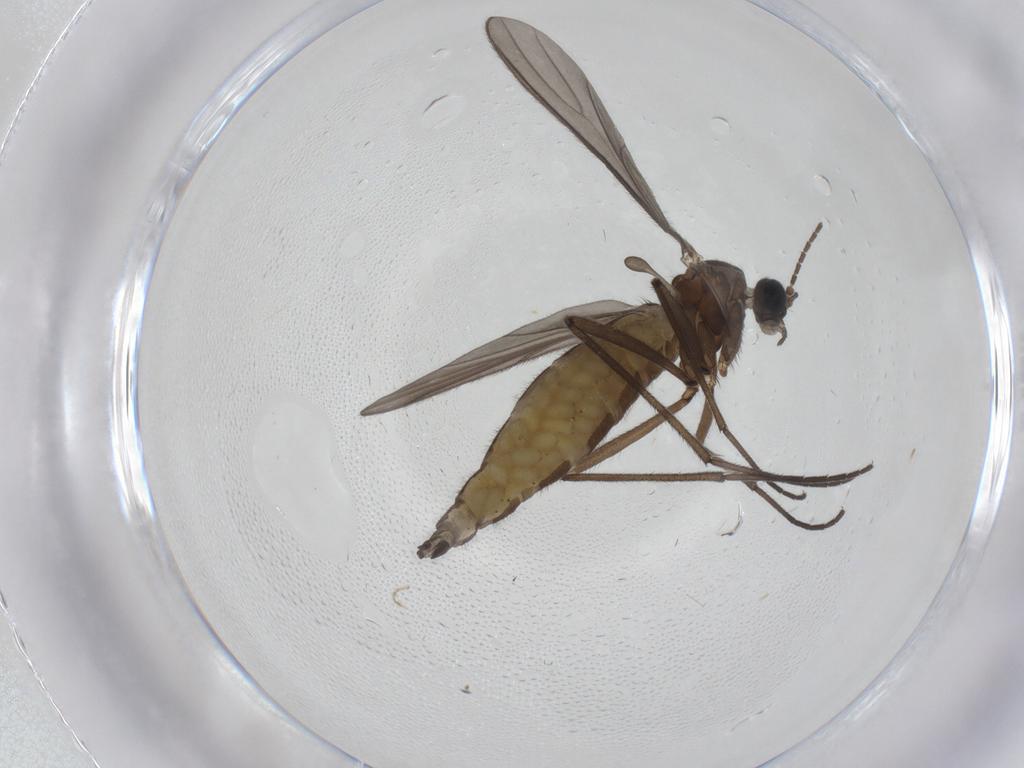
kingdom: Animalia
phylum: Arthropoda
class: Insecta
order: Diptera
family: Sciaridae
